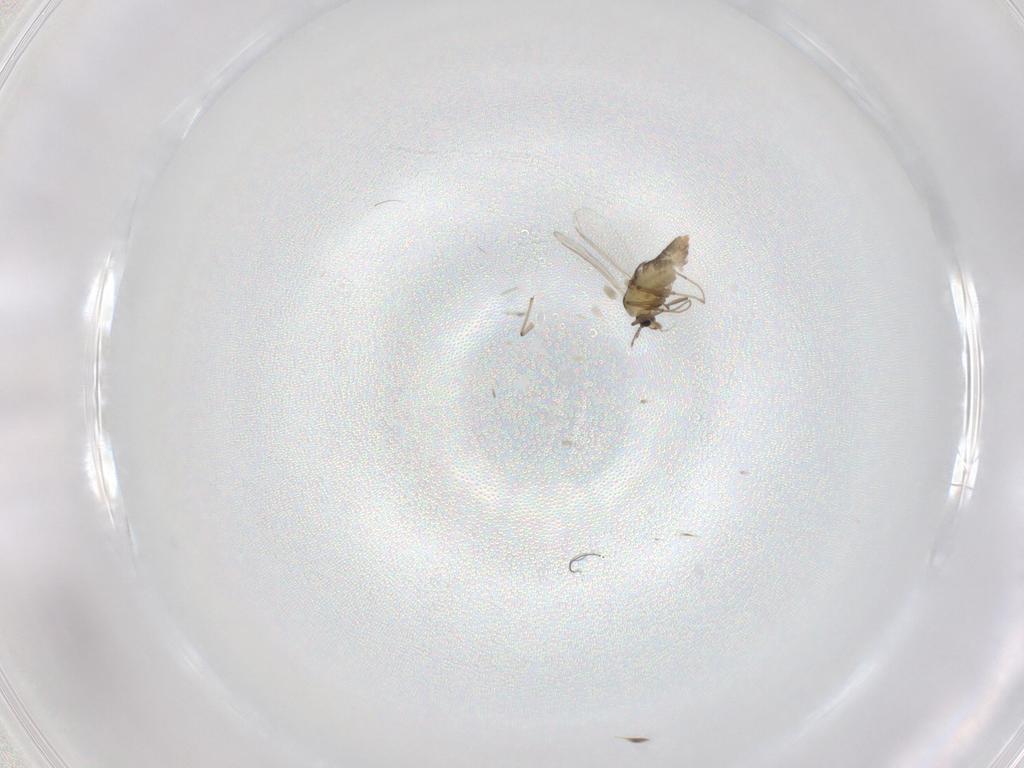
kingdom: Animalia
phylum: Arthropoda
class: Insecta
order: Diptera
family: Chironomidae
